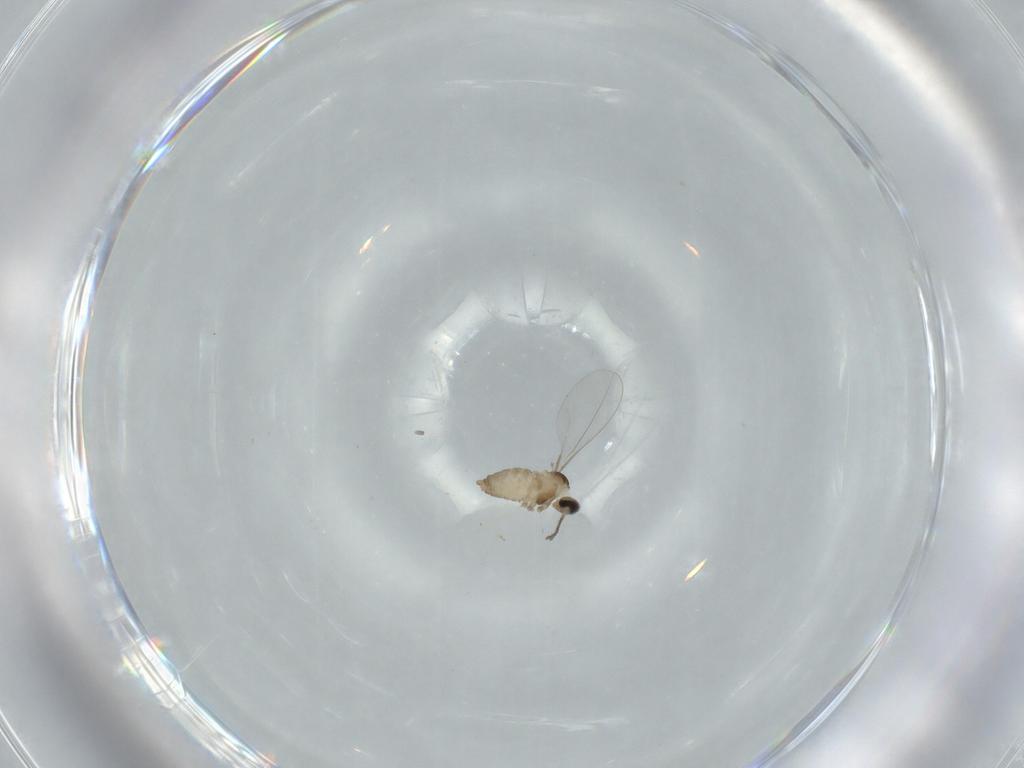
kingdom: Animalia
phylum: Arthropoda
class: Insecta
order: Diptera
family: Cecidomyiidae
